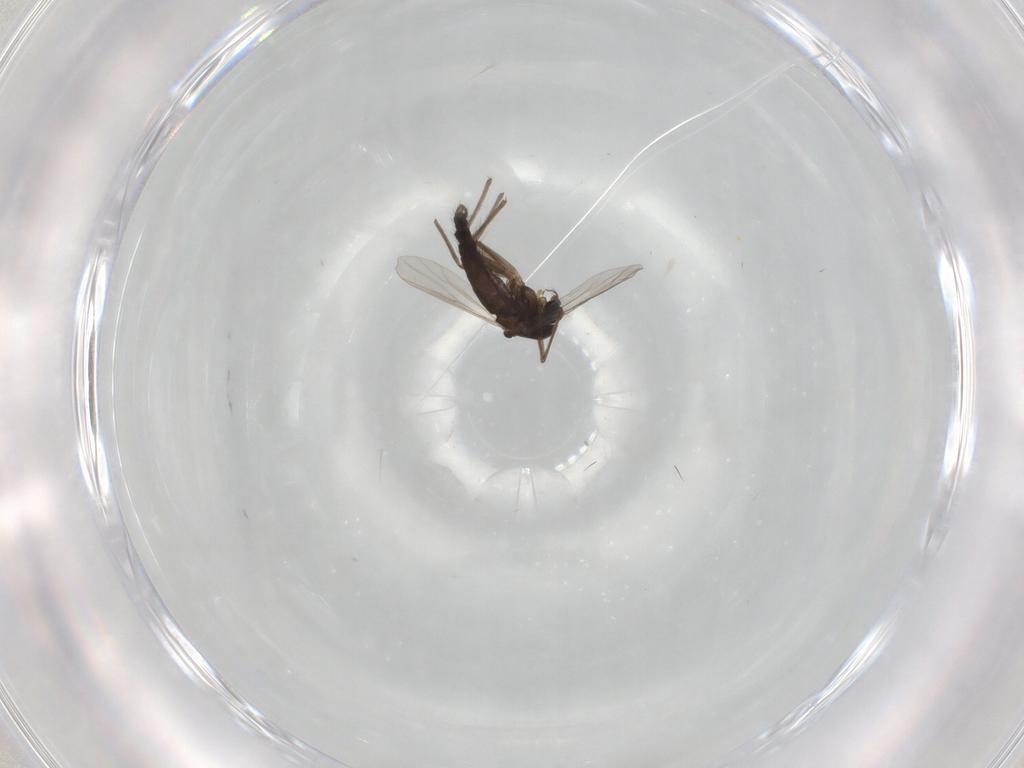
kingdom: Animalia
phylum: Arthropoda
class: Insecta
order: Diptera
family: Chironomidae
